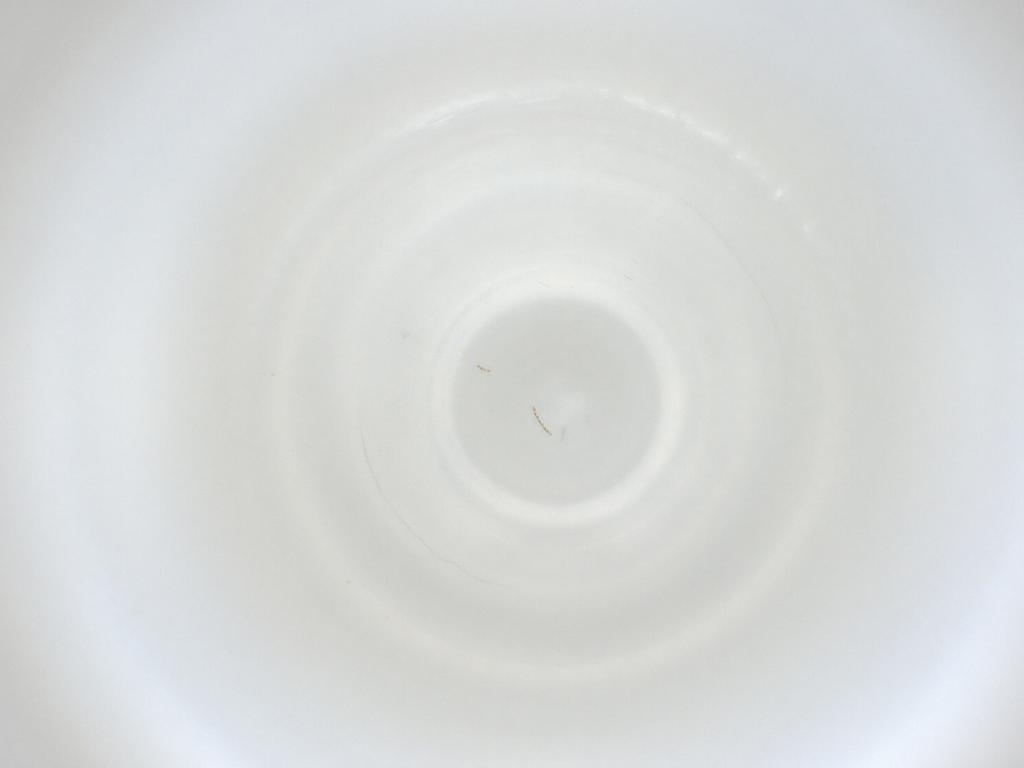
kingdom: Animalia
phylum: Arthropoda
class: Insecta
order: Diptera
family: Cecidomyiidae
